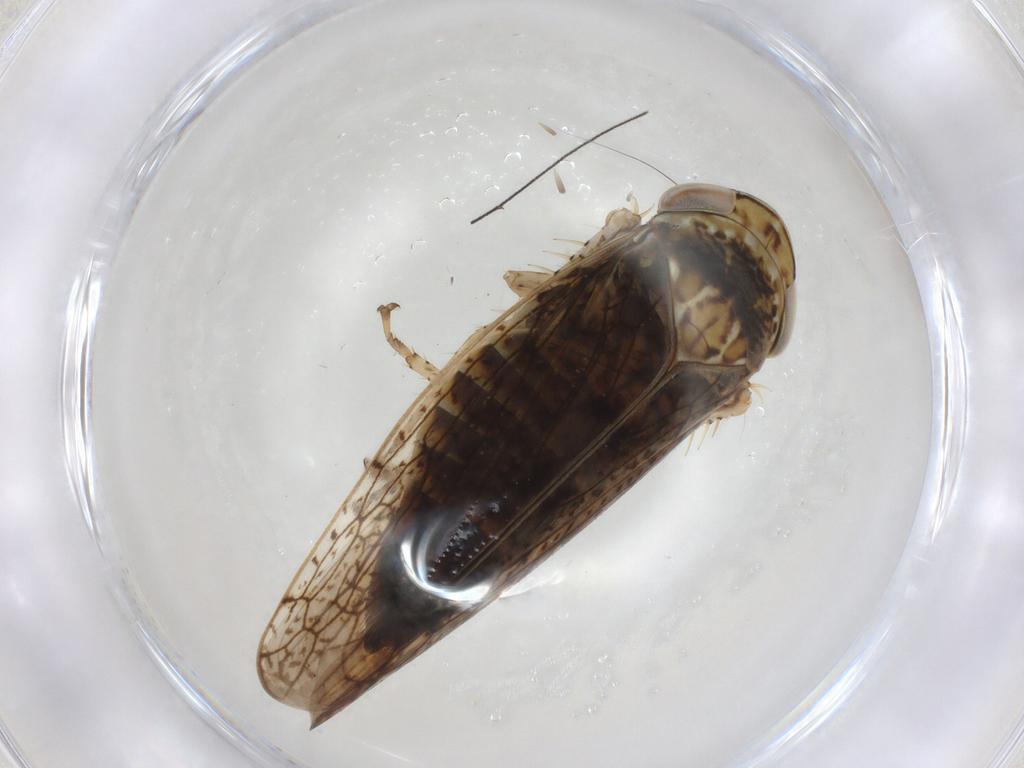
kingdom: Animalia
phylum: Arthropoda
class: Insecta
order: Hemiptera
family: Cicadellidae
